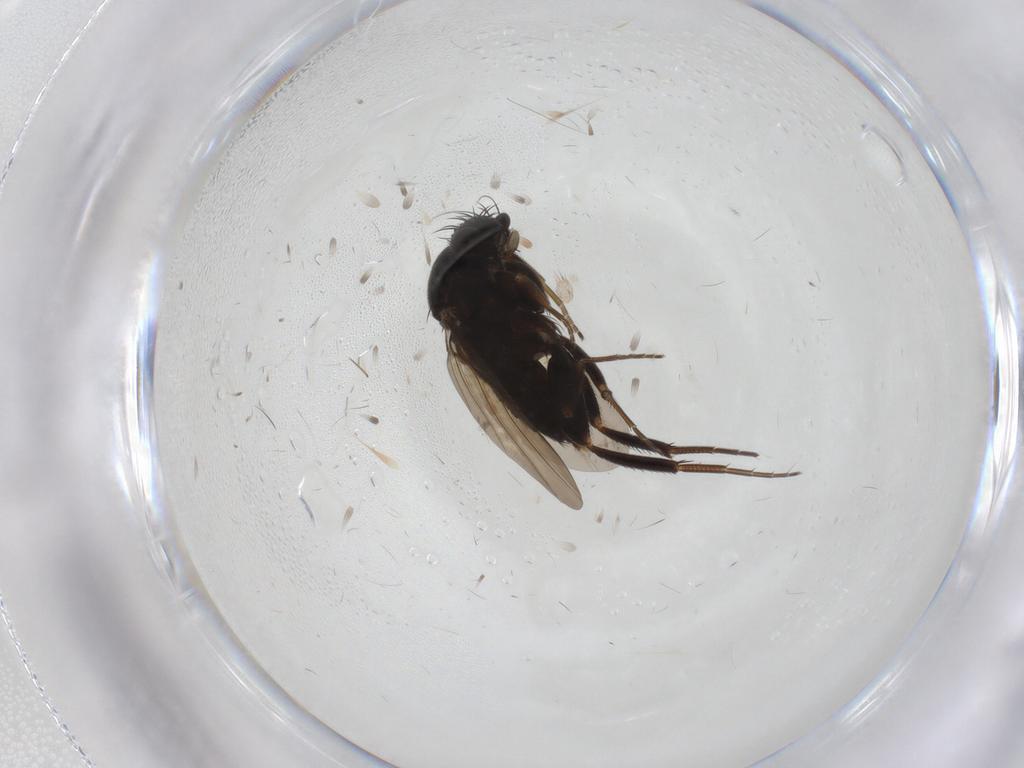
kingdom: Animalia
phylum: Arthropoda
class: Insecta
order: Diptera
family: Phoridae
